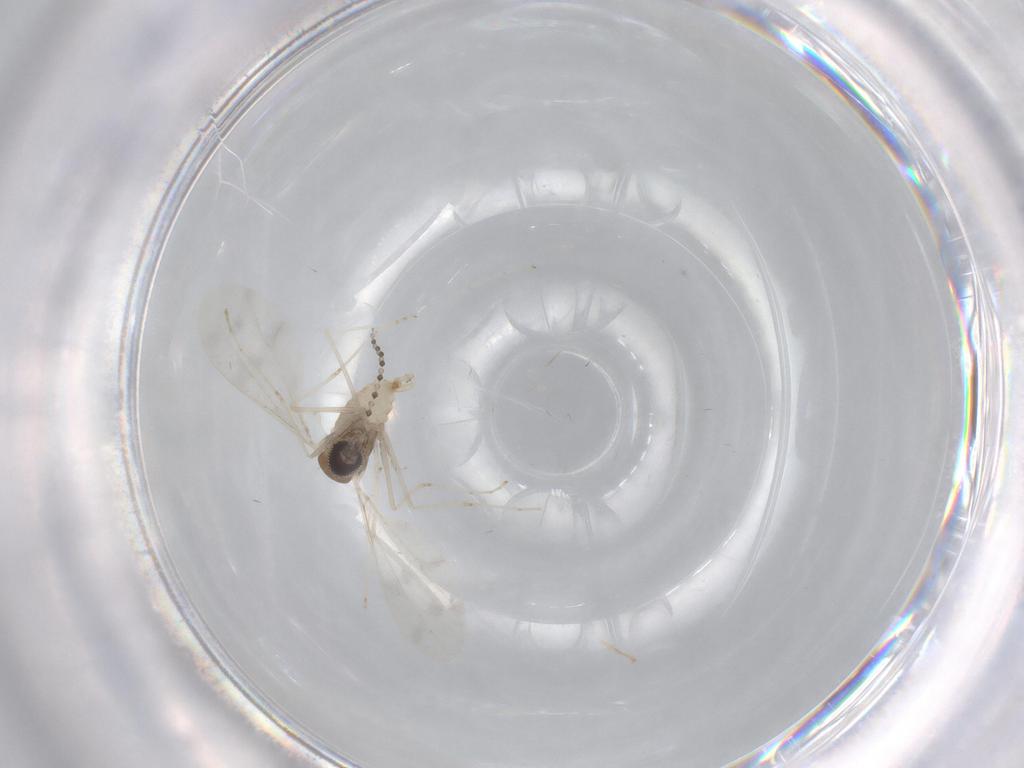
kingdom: Animalia
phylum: Arthropoda
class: Insecta
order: Diptera
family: Cecidomyiidae
